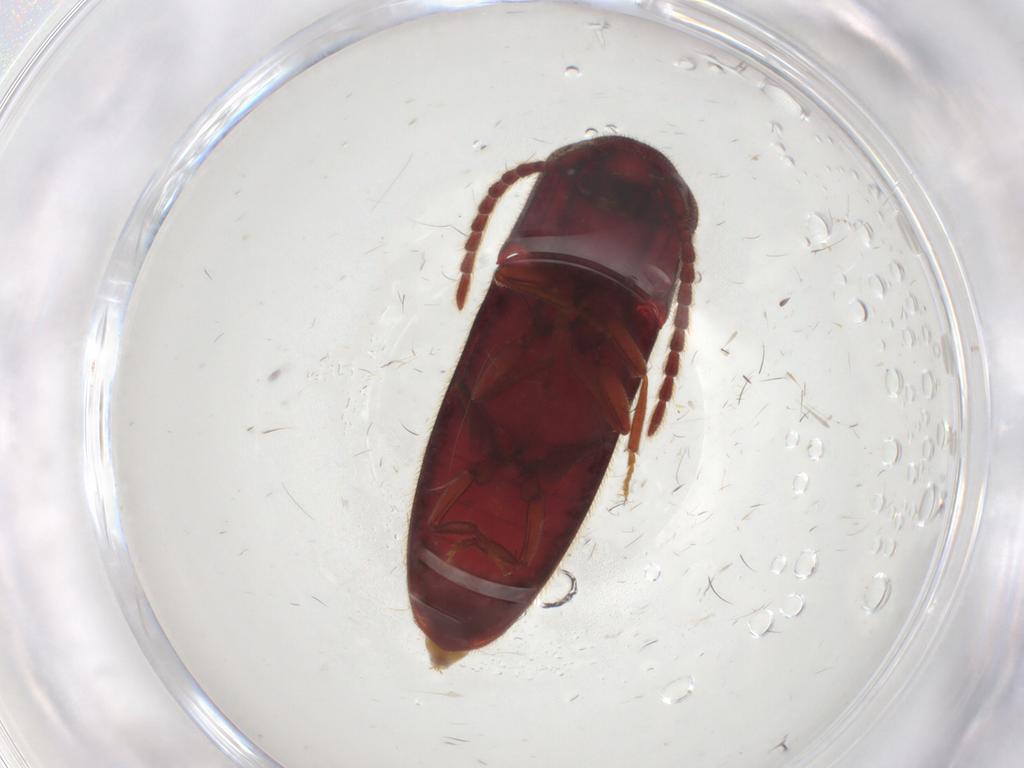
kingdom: Animalia
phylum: Arthropoda
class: Insecta
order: Coleoptera
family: Eucnemidae
